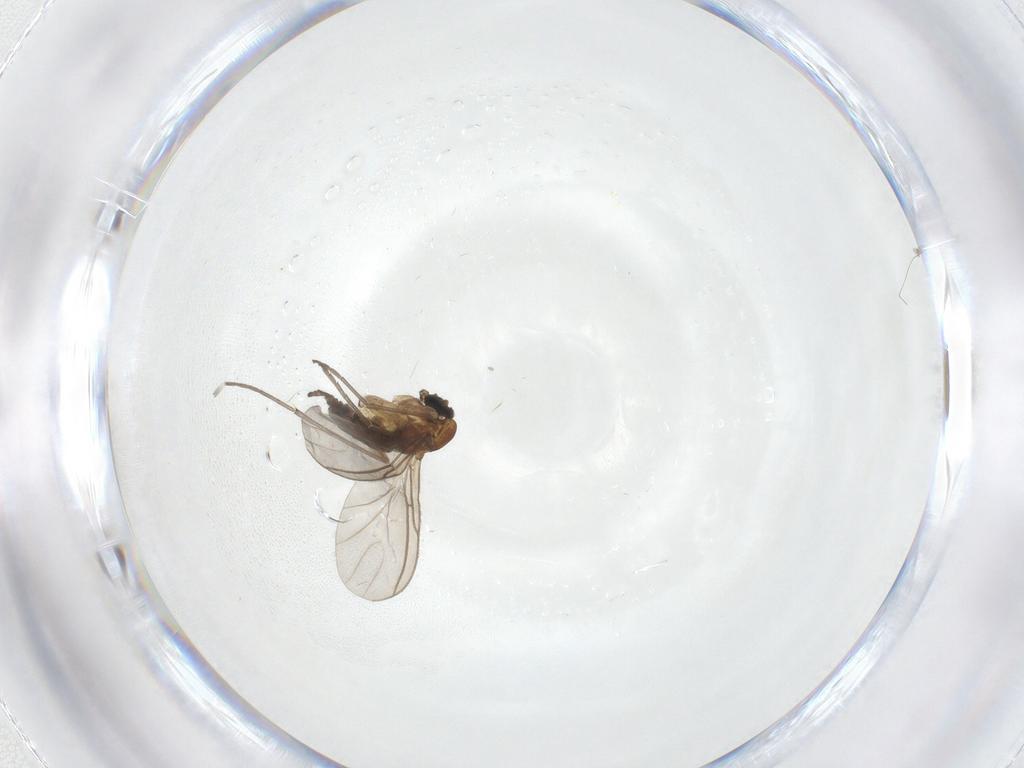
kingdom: Animalia
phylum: Arthropoda
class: Insecta
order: Diptera
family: Sciaridae
